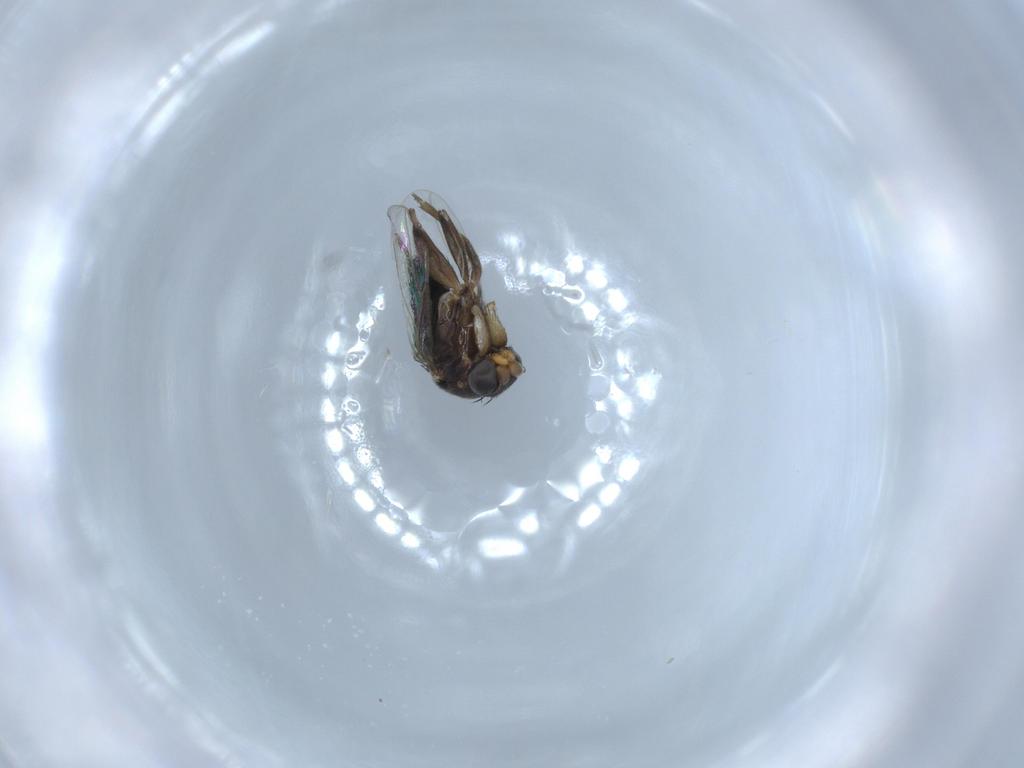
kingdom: Animalia
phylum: Arthropoda
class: Insecta
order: Diptera
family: Phoridae
